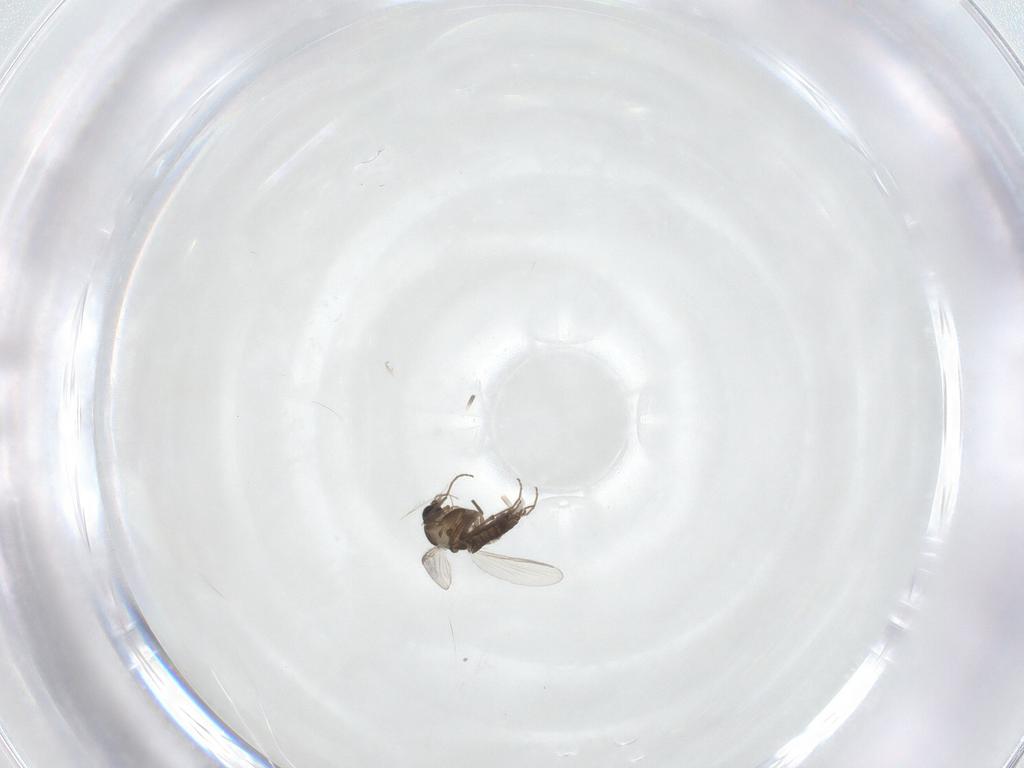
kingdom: Animalia
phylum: Arthropoda
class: Insecta
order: Diptera
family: Chironomidae
